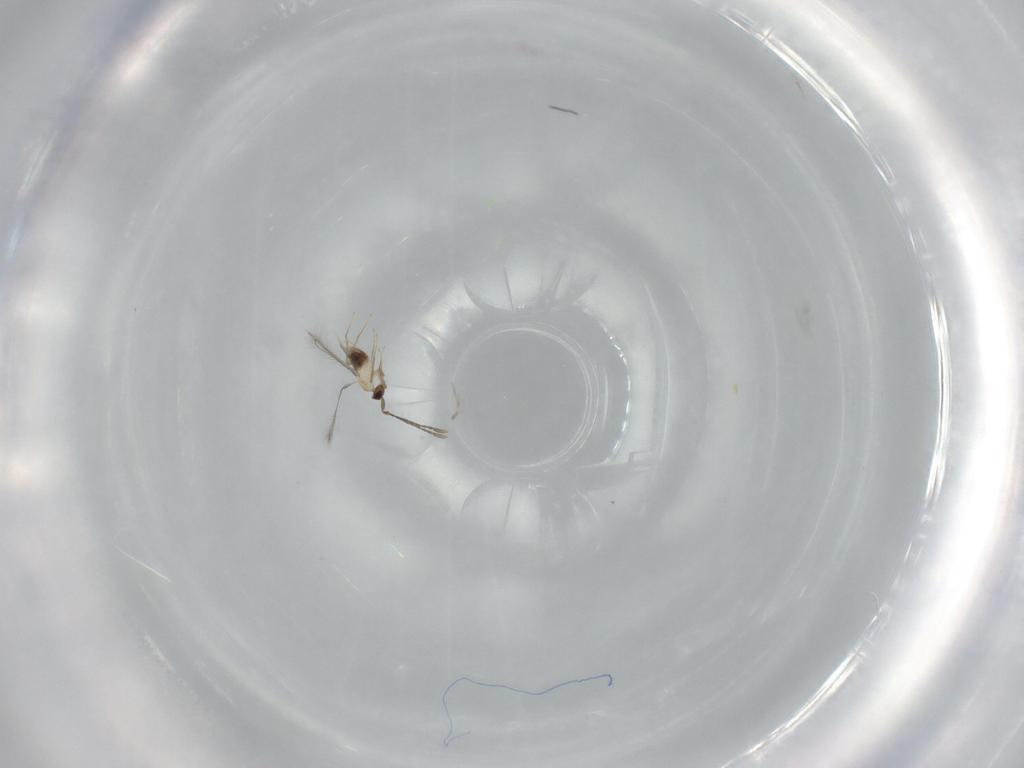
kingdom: Animalia
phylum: Arthropoda
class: Insecta
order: Hymenoptera
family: Mymaridae
